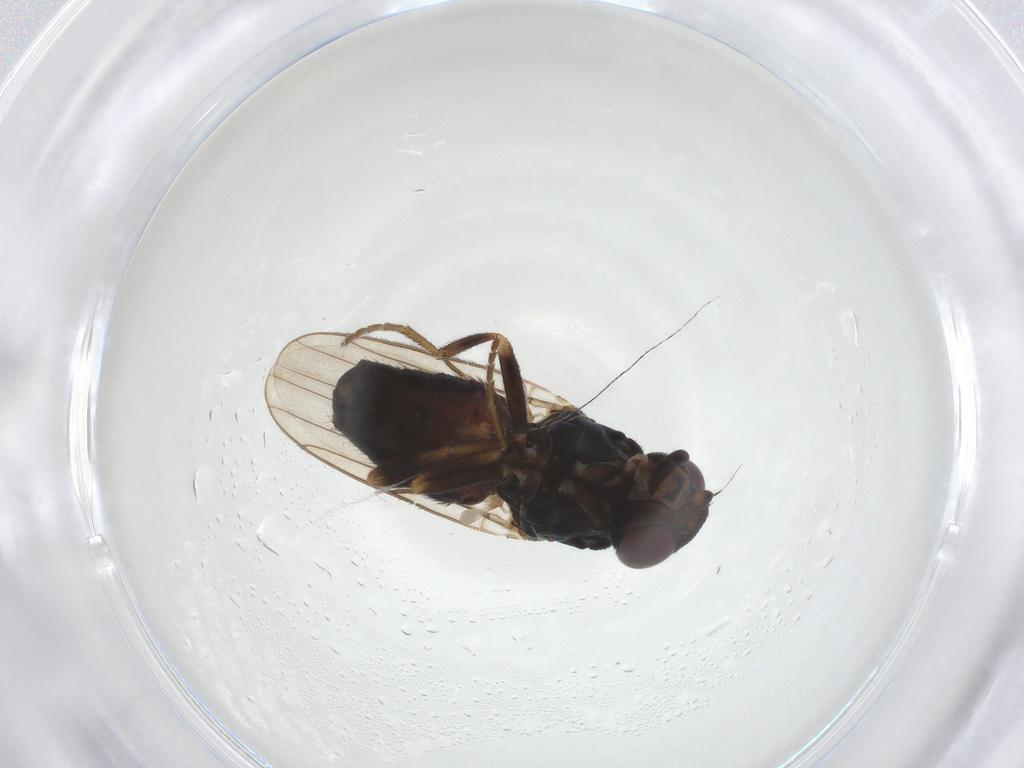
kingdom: Animalia
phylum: Arthropoda
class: Insecta
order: Diptera
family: Chloropidae
